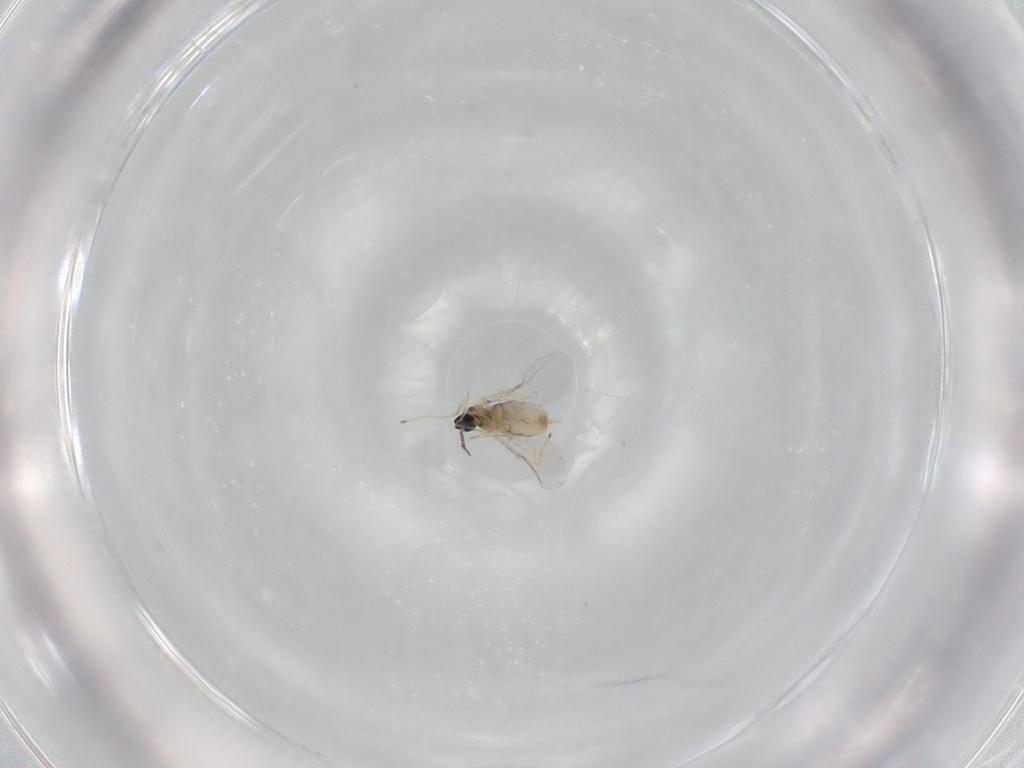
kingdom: Animalia
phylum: Arthropoda
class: Insecta
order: Diptera
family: Cecidomyiidae
